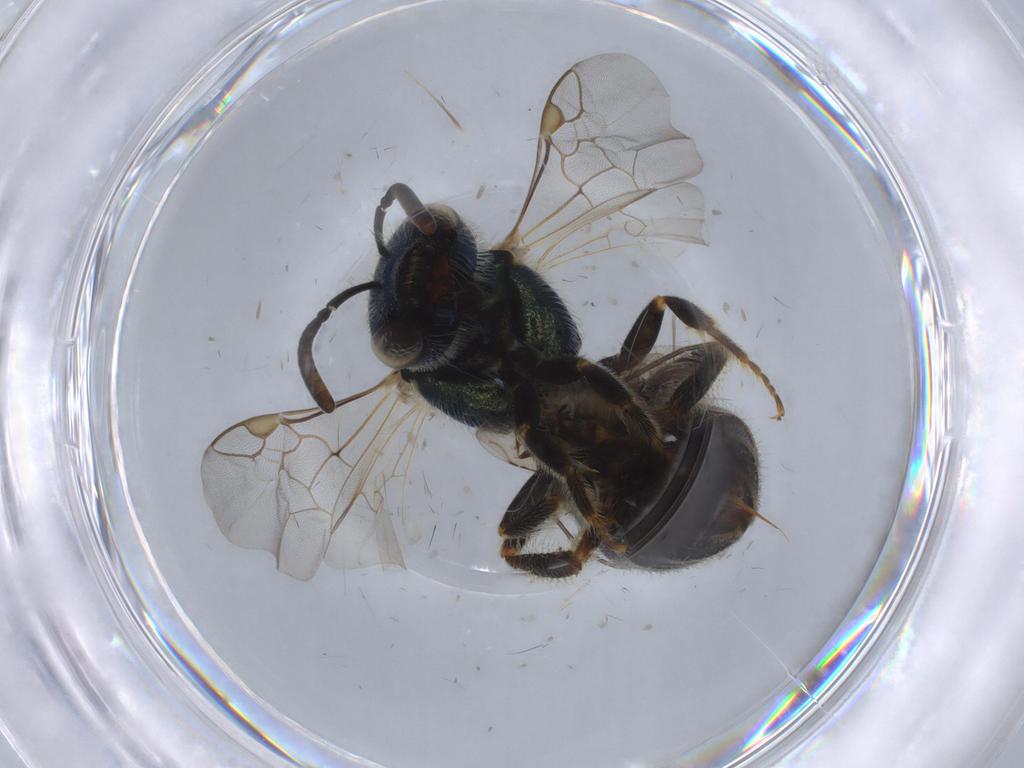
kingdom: Animalia
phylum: Arthropoda
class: Insecta
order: Hymenoptera
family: Halictidae
